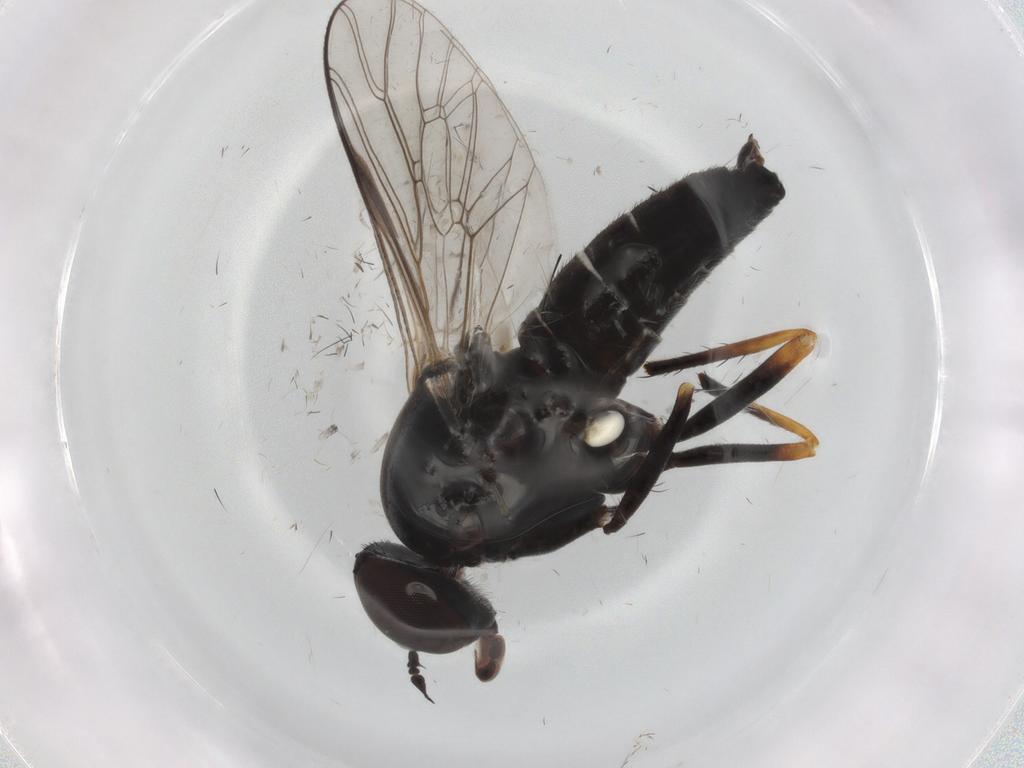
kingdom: Animalia
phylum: Arthropoda
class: Insecta
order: Diptera
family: Therevidae
